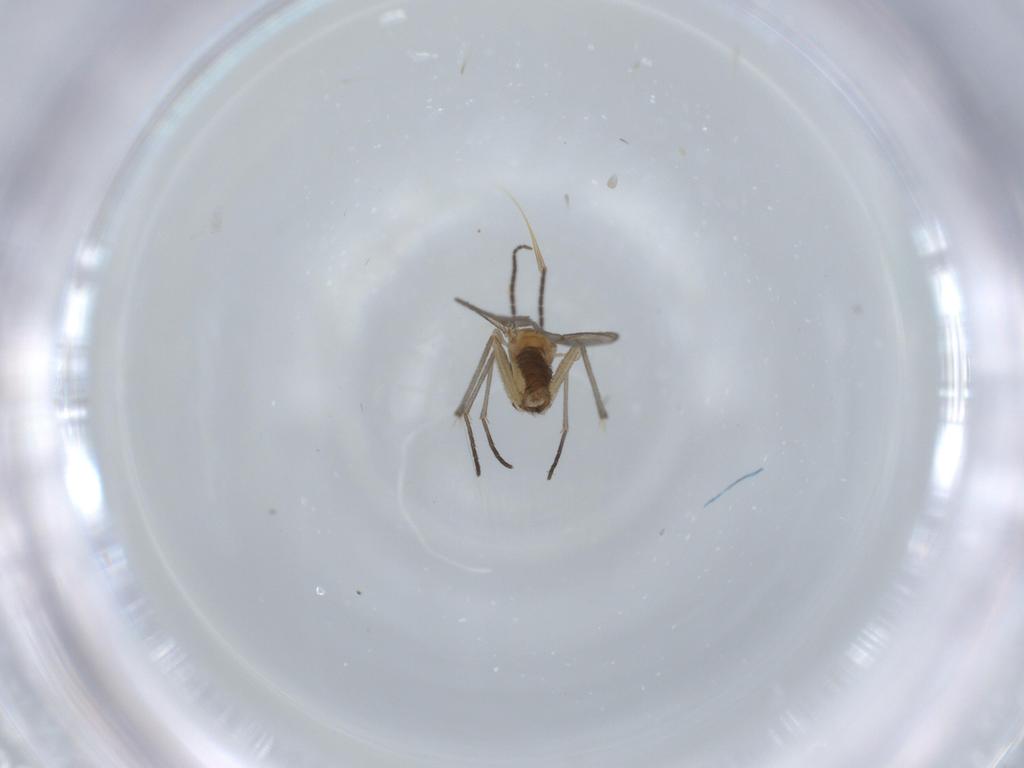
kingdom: Animalia
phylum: Arthropoda
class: Insecta
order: Diptera
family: Sciaridae
